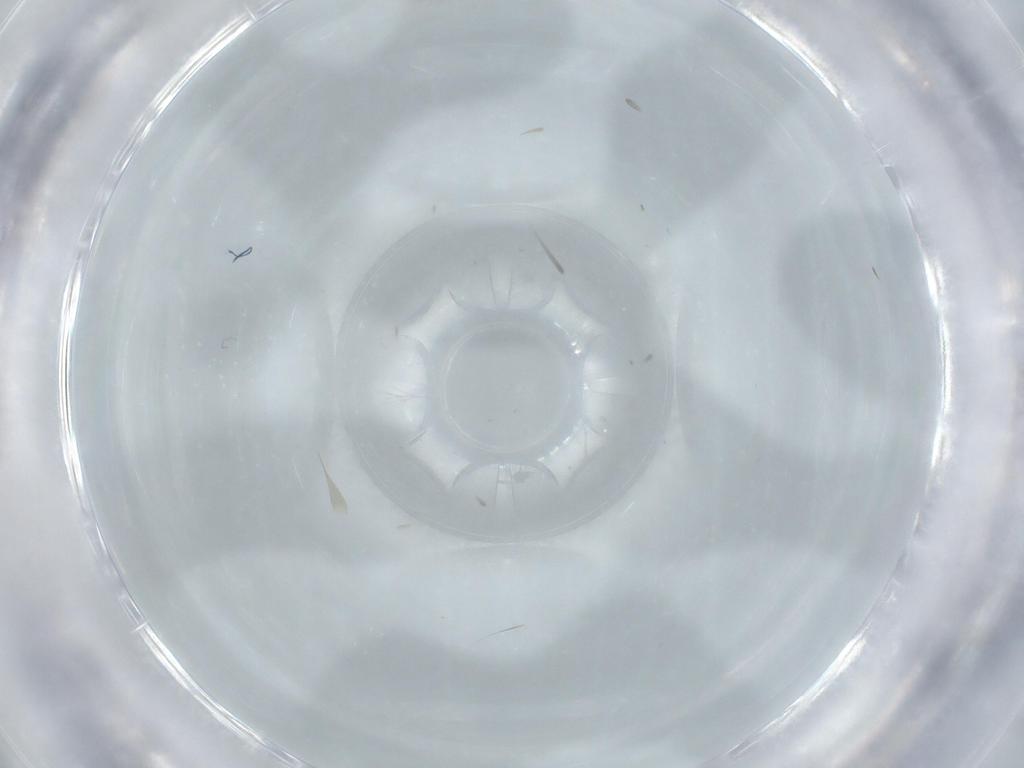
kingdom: Animalia
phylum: Arthropoda
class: Insecta
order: Diptera
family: Ceratopogonidae
